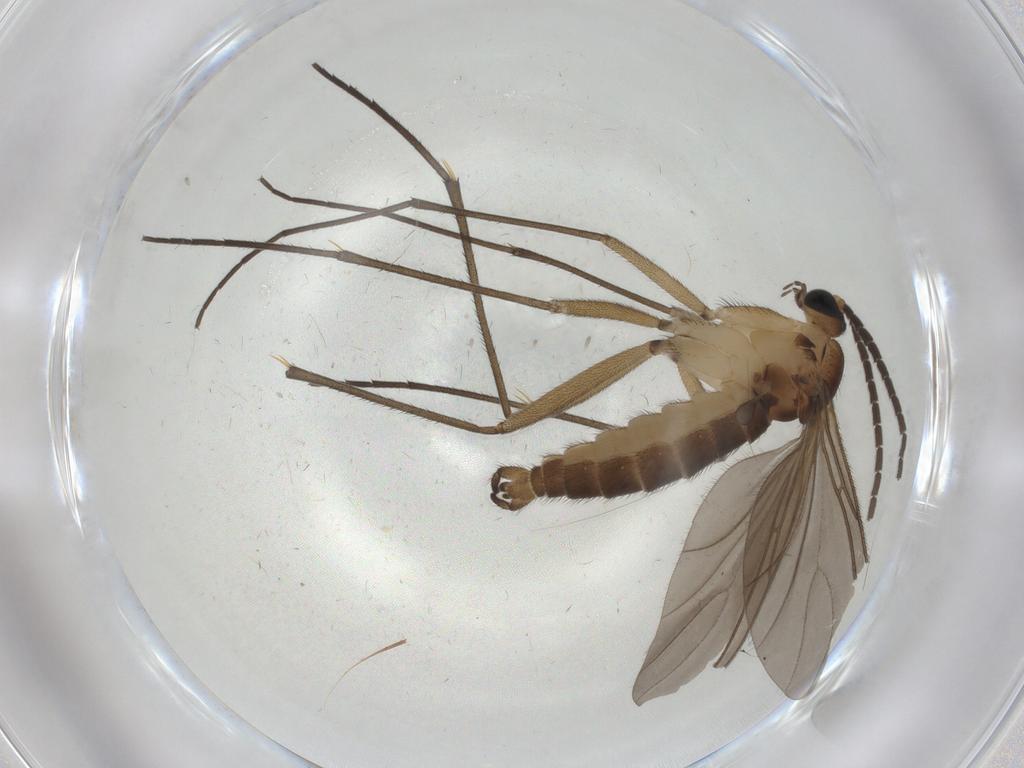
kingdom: Animalia
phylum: Arthropoda
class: Insecta
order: Diptera
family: Sciaridae
